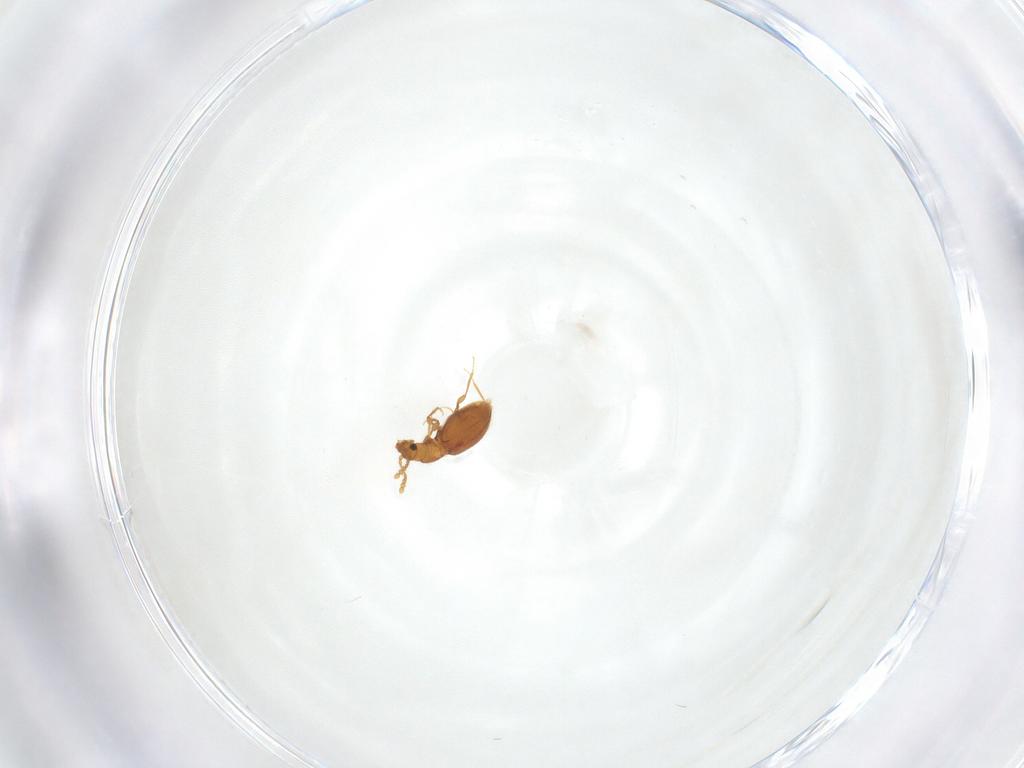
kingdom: Animalia
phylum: Arthropoda
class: Insecta
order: Coleoptera
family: Staphylinidae
